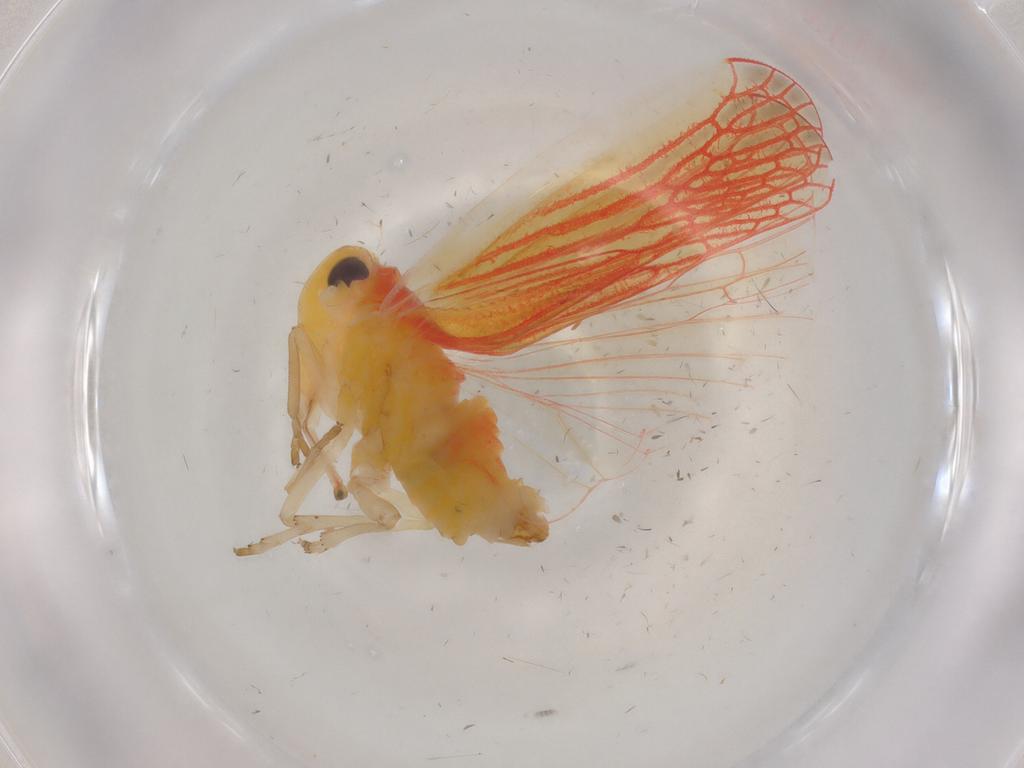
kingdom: Animalia
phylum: Arthropoda
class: Insecta
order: Hemiptera
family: Derbidae
